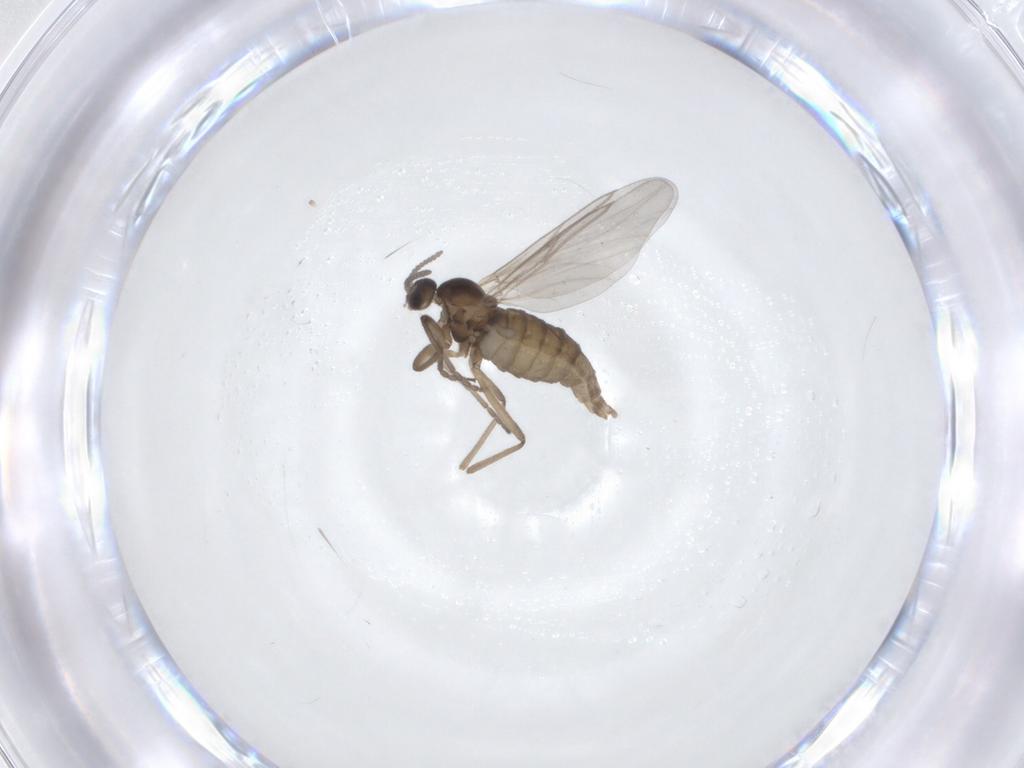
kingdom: Animalia
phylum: Arthropoda
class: Insecta
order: Diptera
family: Cecidomyiidae
